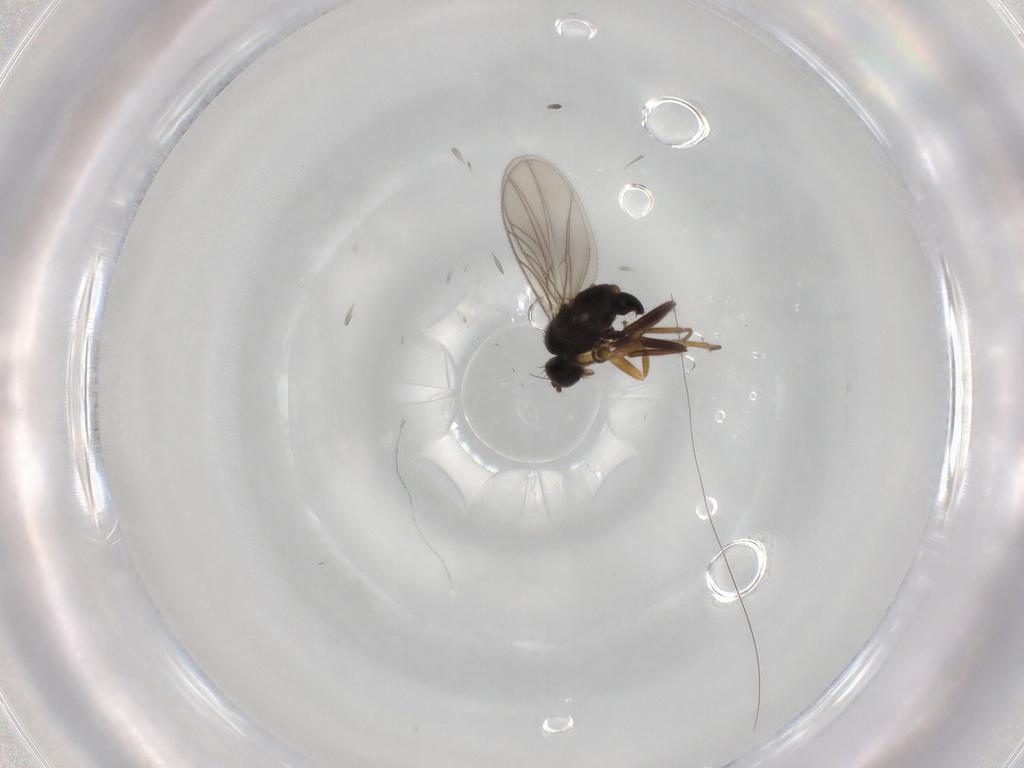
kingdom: Animalia
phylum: Arthropoda
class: Insecta
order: Diptera
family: Hybotidae
